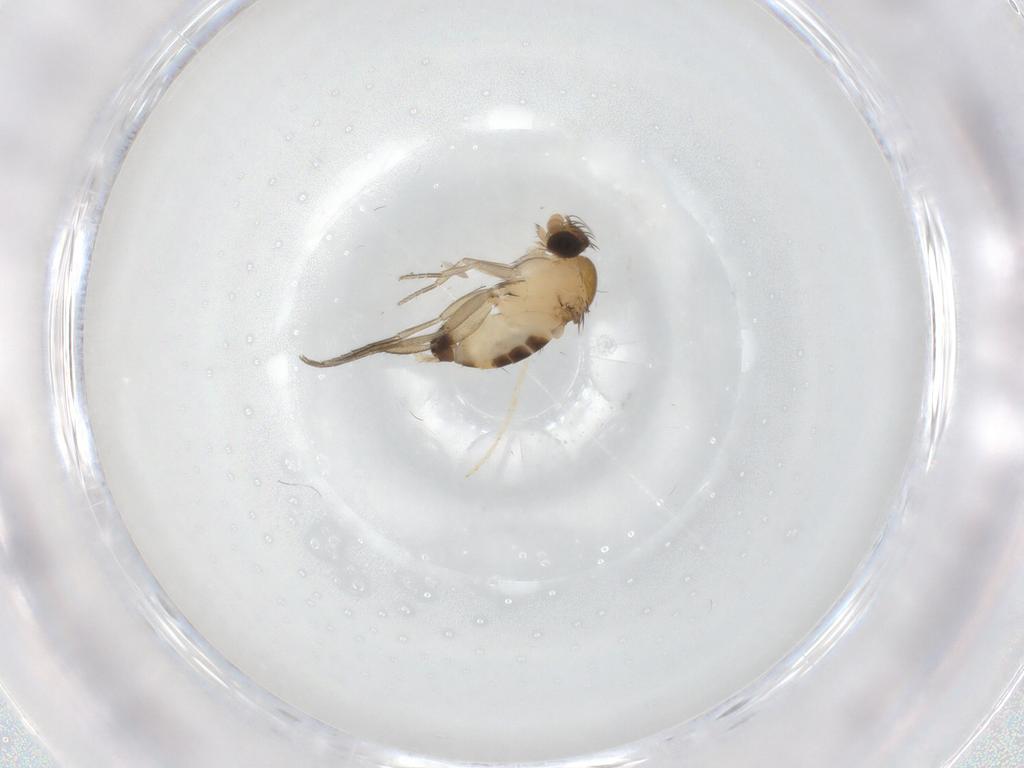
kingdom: Animalia
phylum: Arthropoda
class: Insecta
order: Diptera
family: Phoridae
